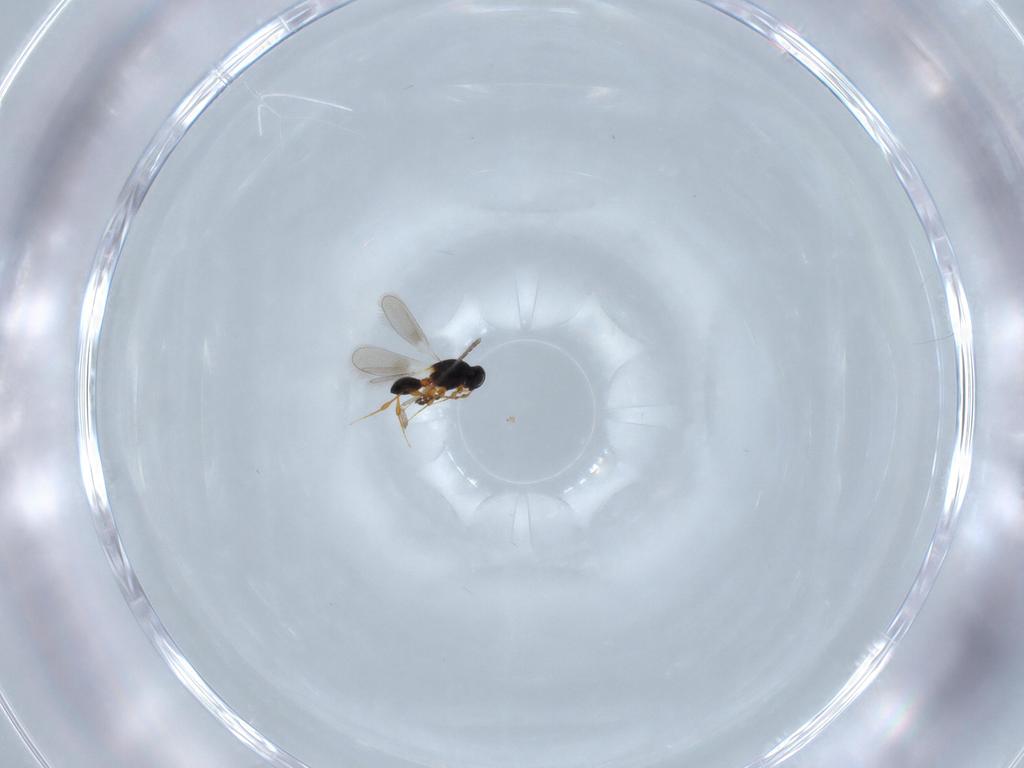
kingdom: Animalia
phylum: Arthropoda
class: Insecta
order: Hymenoptera
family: Platygastridae
